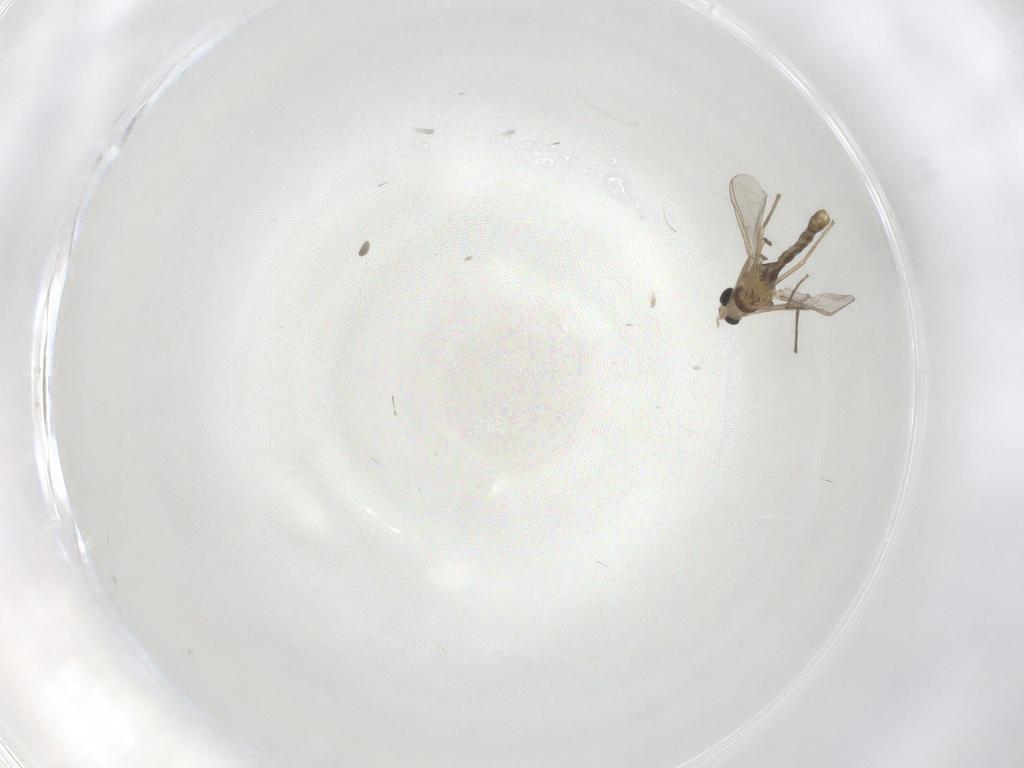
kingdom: Animalia
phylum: Arthropoda
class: Insecta
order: Diptera
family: Chironomidae
